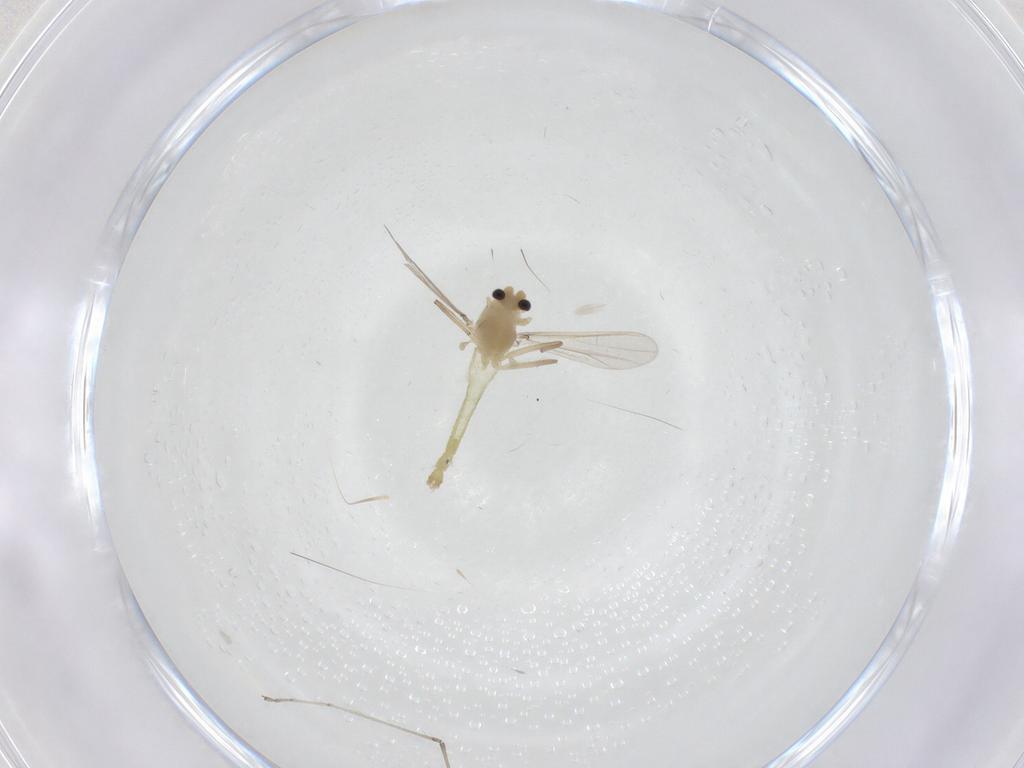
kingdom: Animalia
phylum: Arthropoda
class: Insecta
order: Diptera
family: Chironomidae
